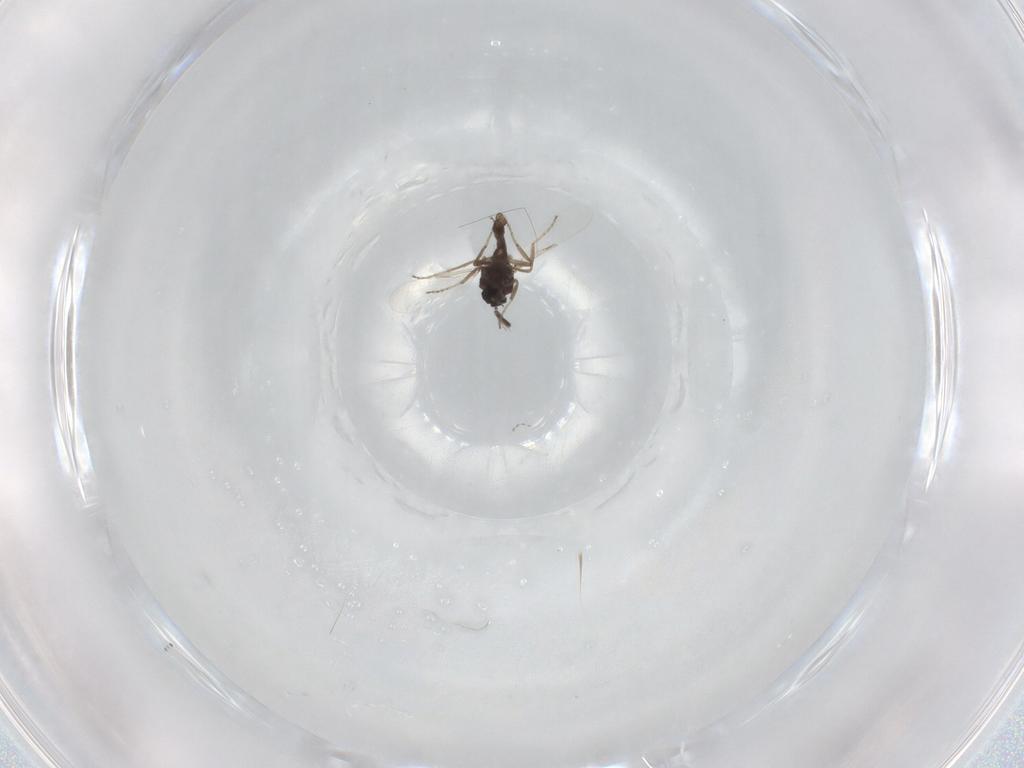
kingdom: Animalia
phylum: Arthropoda
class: Insecta
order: Diptera
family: Ceratopogonidae
